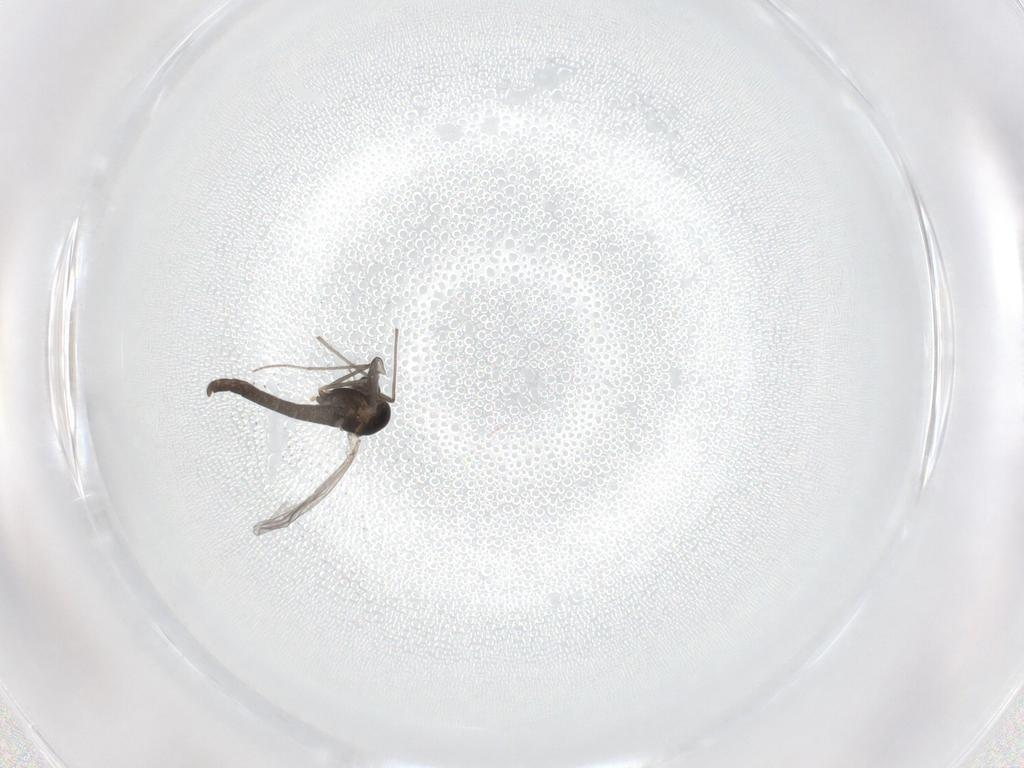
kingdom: Animalia
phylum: Arthropoda
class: Insecta
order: Diptera
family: Chironomidae
